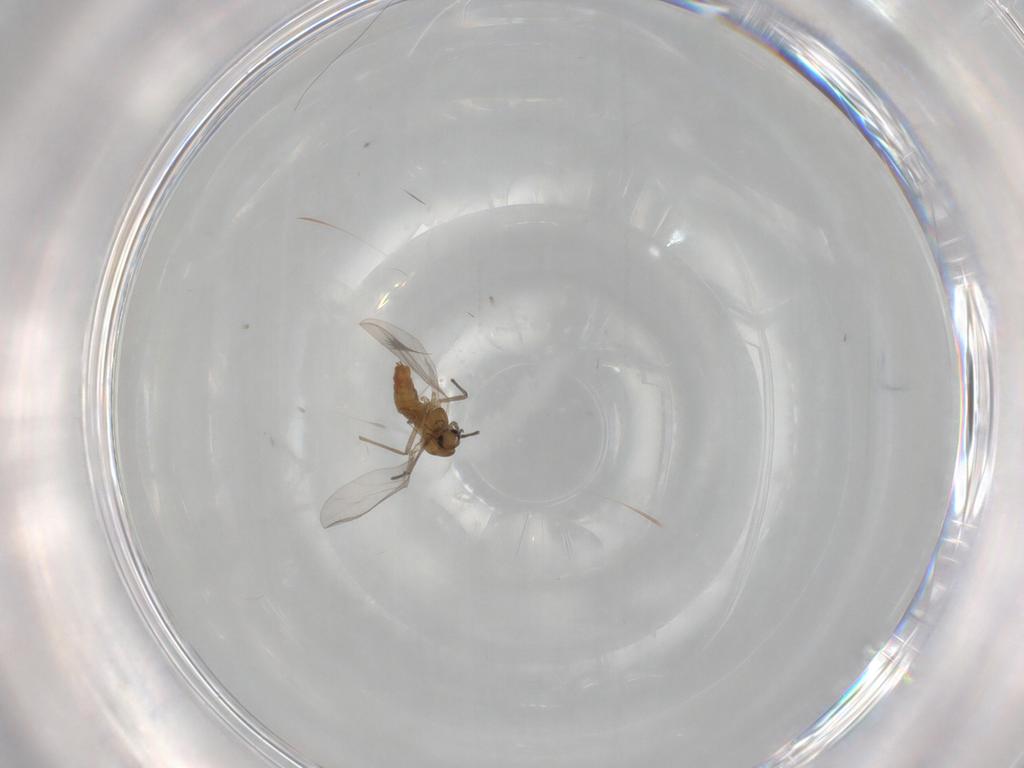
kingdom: Animalia
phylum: Arthropoda
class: Insecta
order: Diptera
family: Chironomidae
